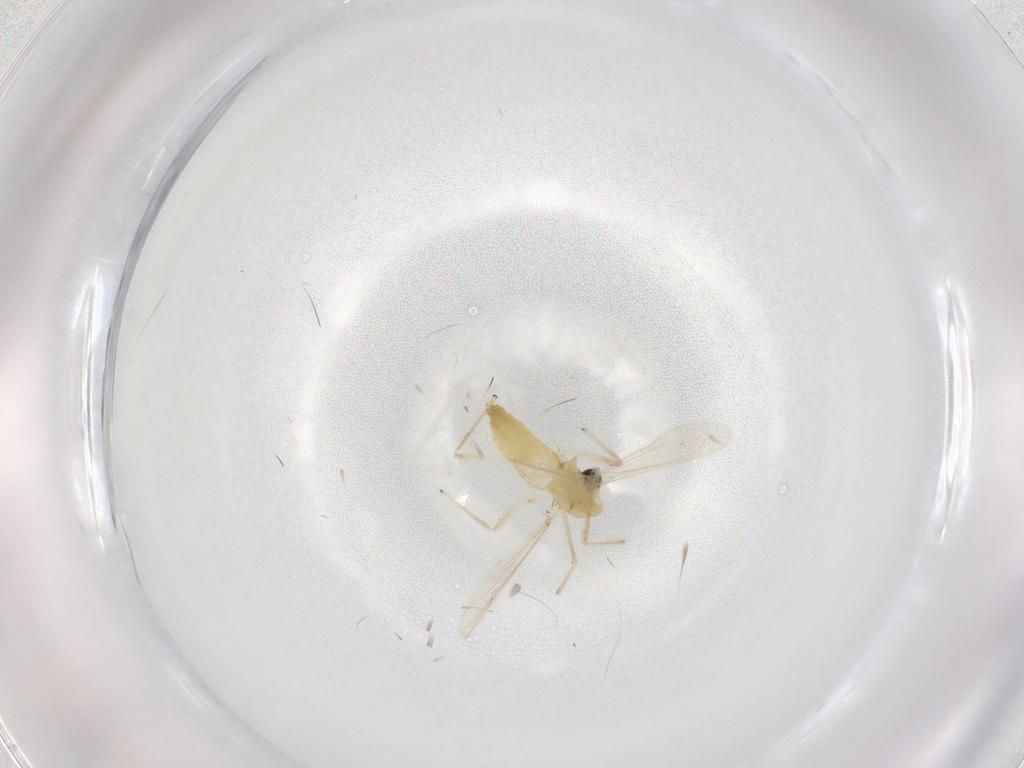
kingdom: Animalia
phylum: Arthropoda
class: Insecta
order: Diptera
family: Chironomidae
